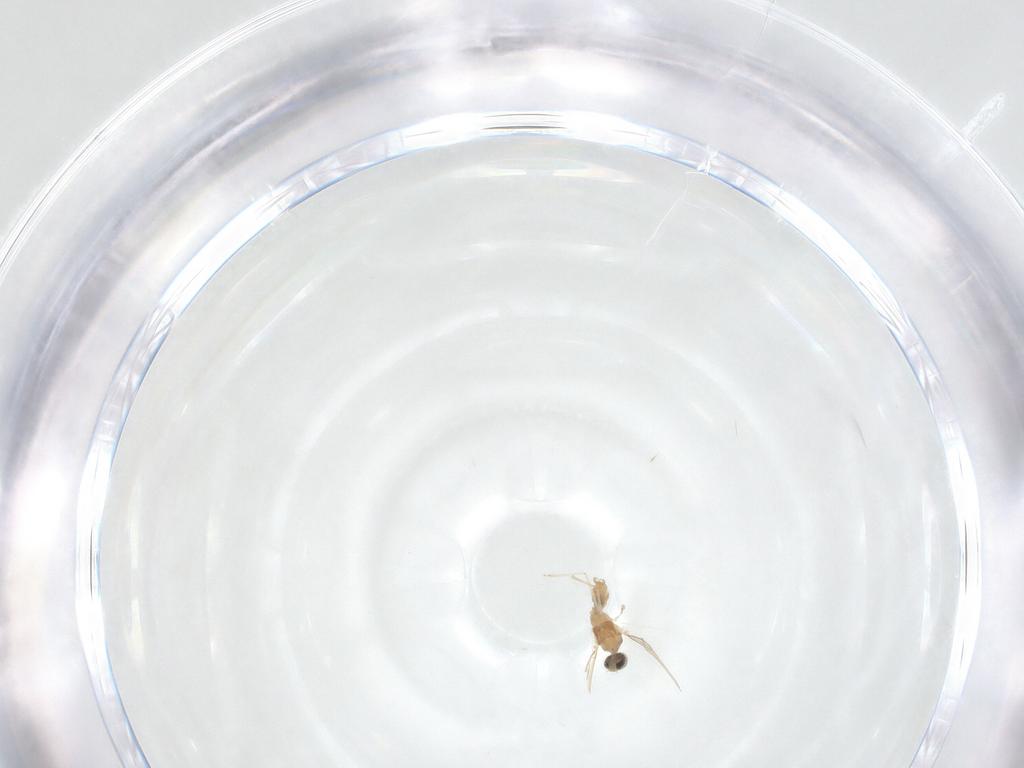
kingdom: Animalia
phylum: Arthropoda
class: Insecta
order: Diptera
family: Cecidomyiidae
